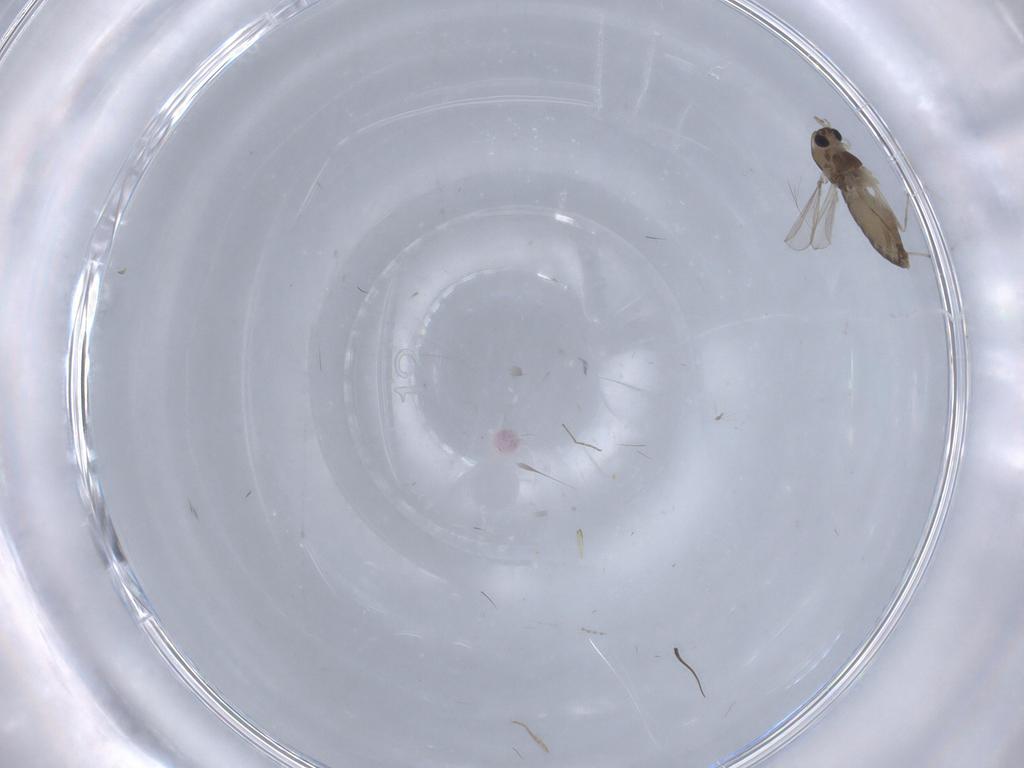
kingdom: Animalia
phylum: Arthropoda
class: Insecta
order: Diptera
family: Chironomidae
